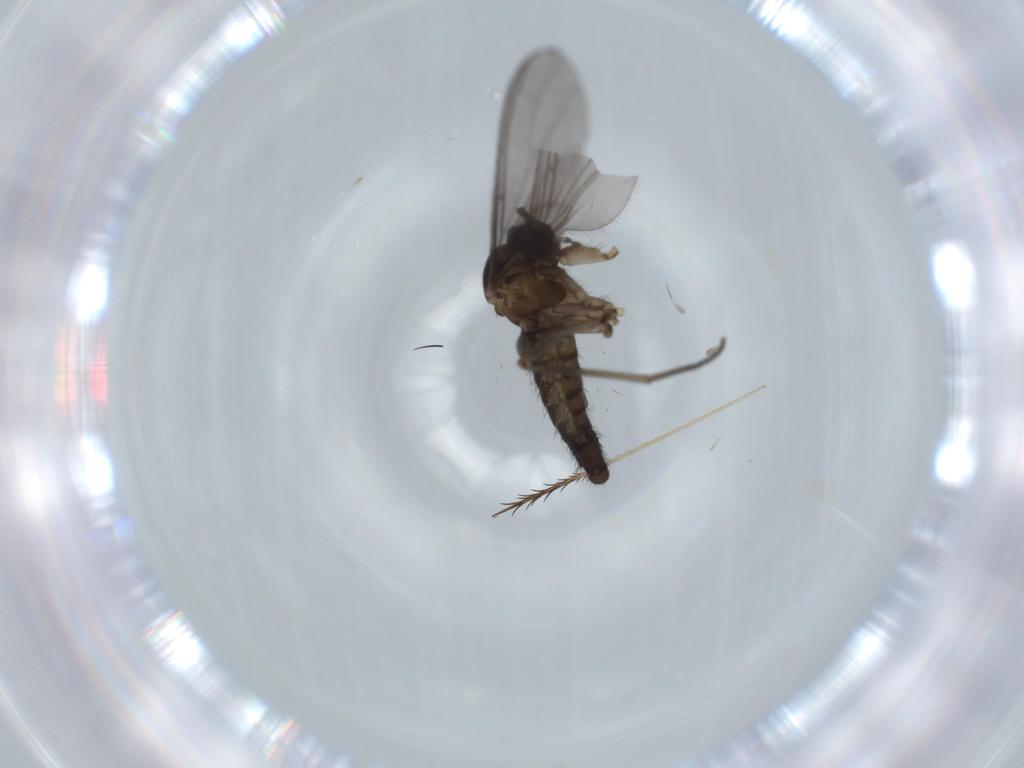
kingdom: Animalia
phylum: Arthropoda
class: Insecta
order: Diptera
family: Sciaridae
